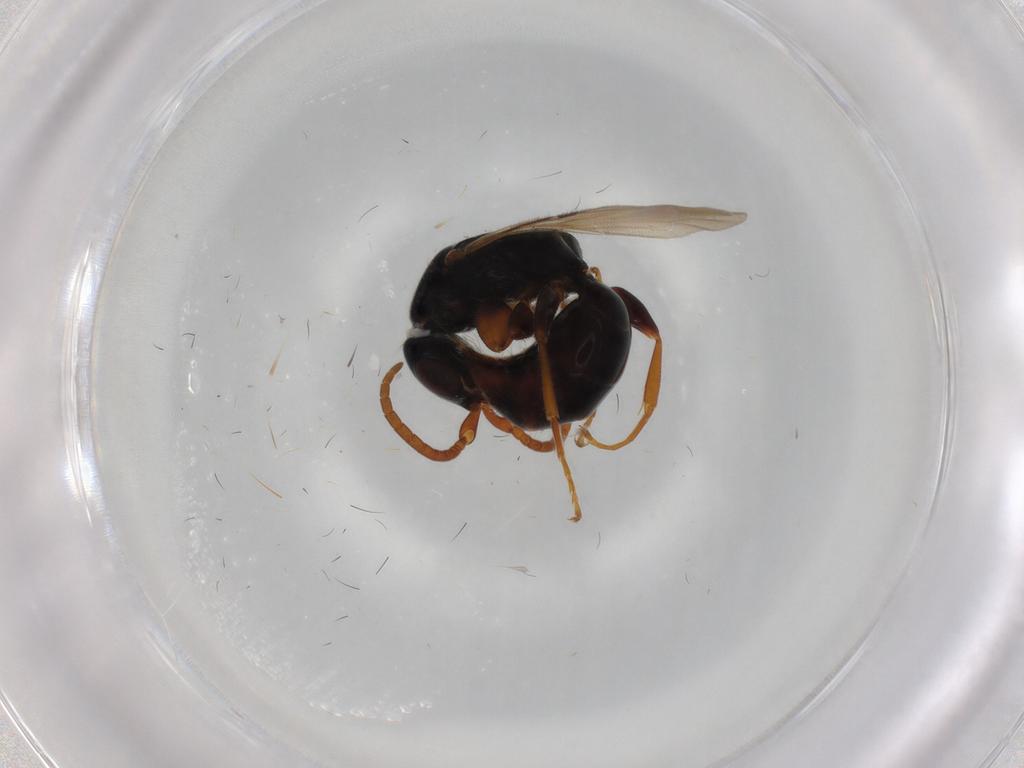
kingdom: Animalia
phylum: Arthropoda
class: Insecta
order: Hymenoptera
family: Bethylidae
